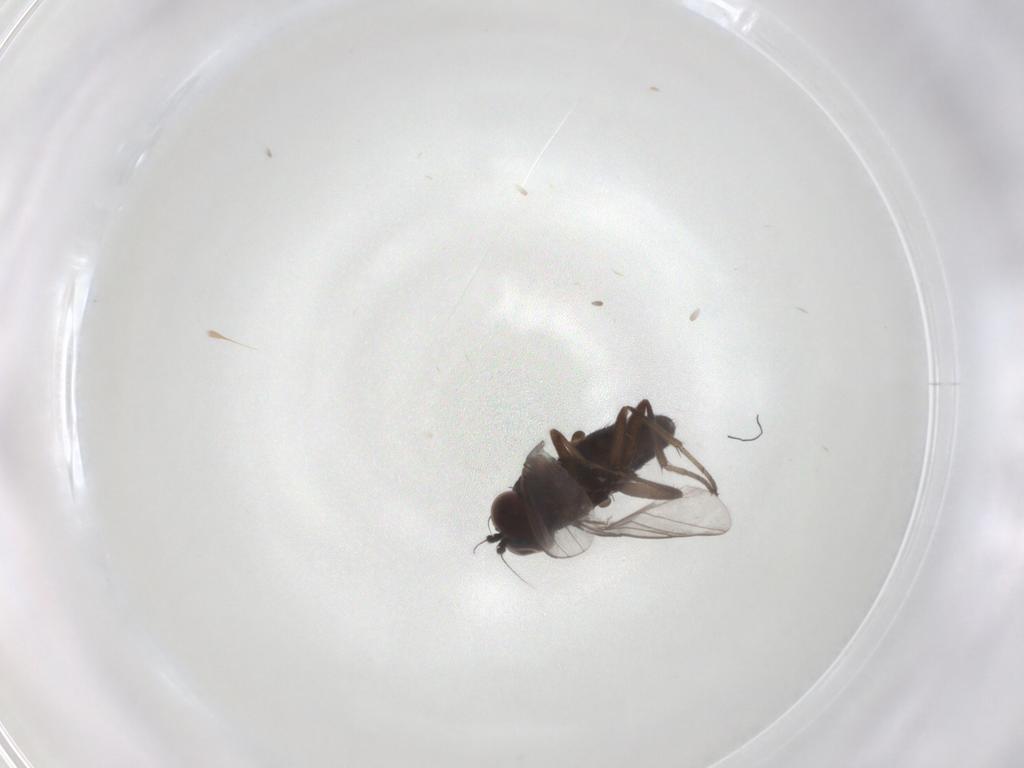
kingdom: Animalia
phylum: Arthropoda
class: Insecta
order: Diptera
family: Dolichopodidae
